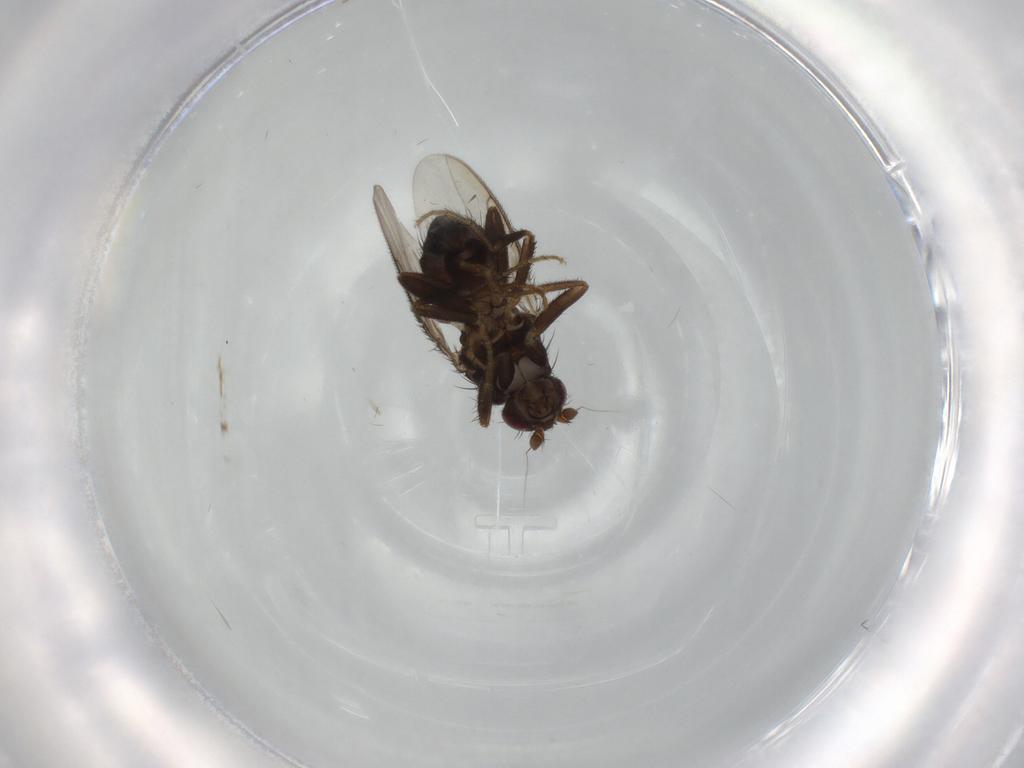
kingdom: Animalia
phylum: Arthropoda
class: Insecta
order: Diptera
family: Sphaeroceridae
